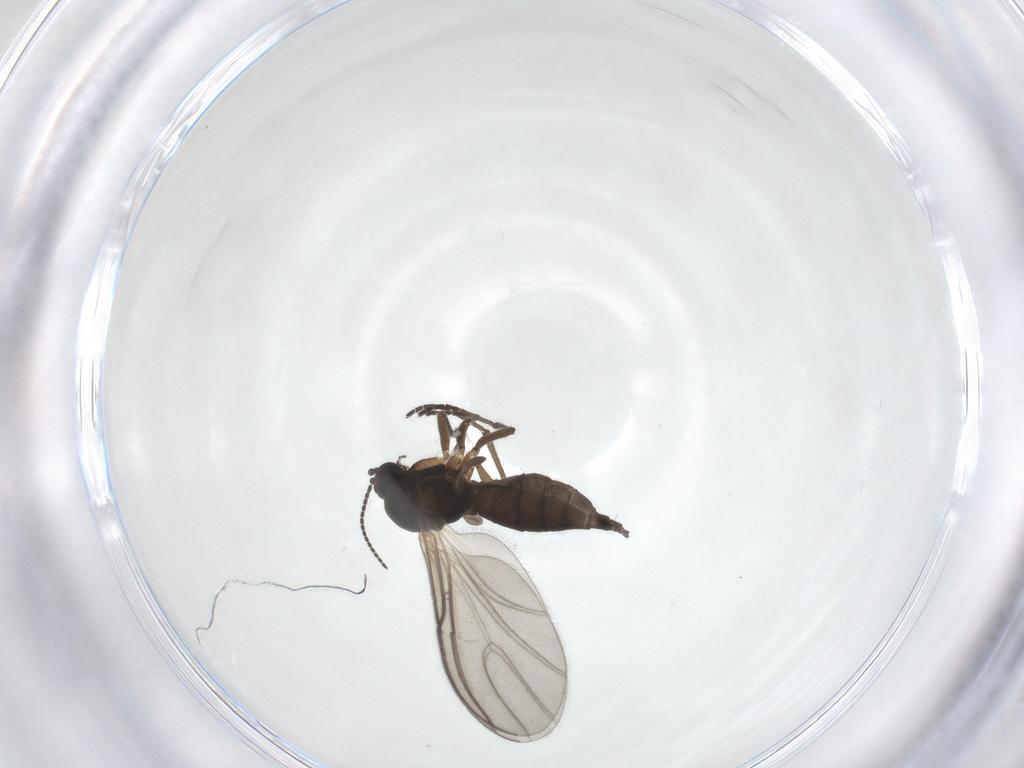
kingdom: Animalia
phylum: Arthropoda
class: Insecta
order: Diptera
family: Sciaridae
